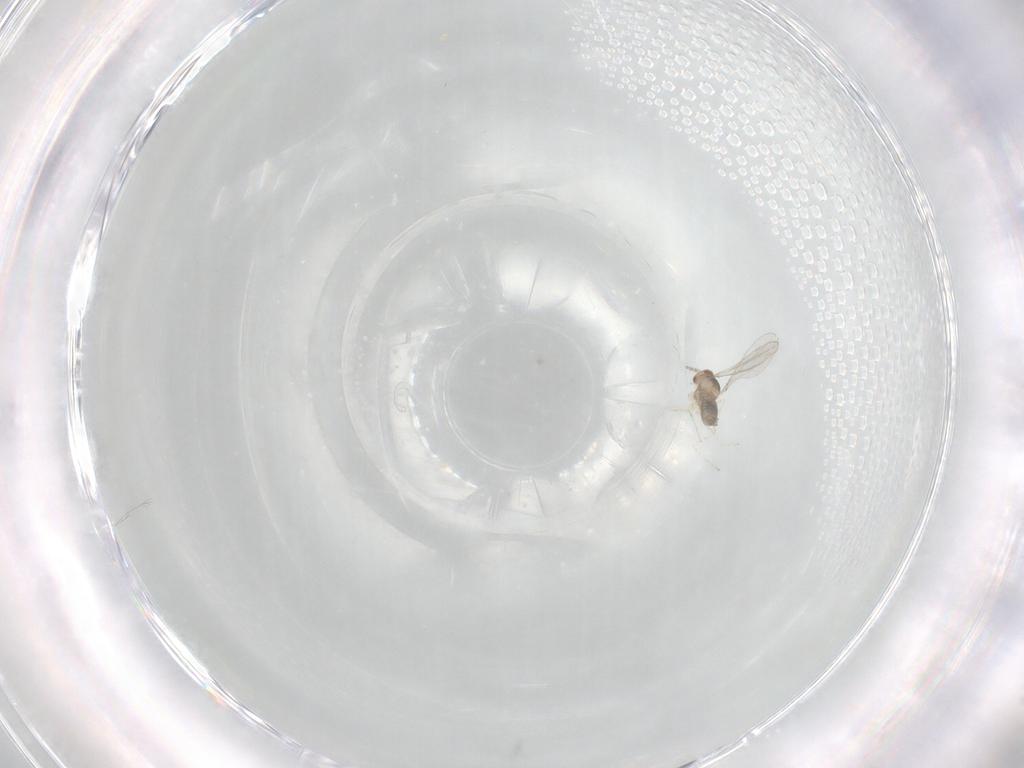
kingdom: Animalia
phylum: Arthropoda
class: Insecta
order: Diptera
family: Cecidomyiidae
